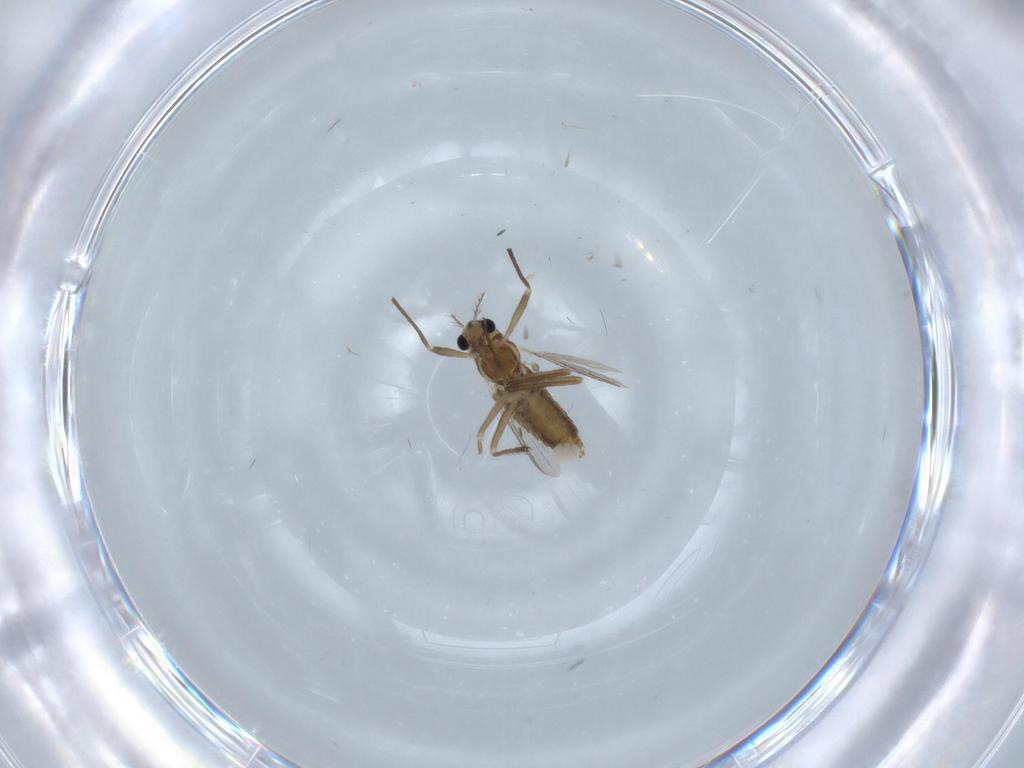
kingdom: Animalia
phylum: Arthropoda
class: Insecta
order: Diptera
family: Chironomidae
